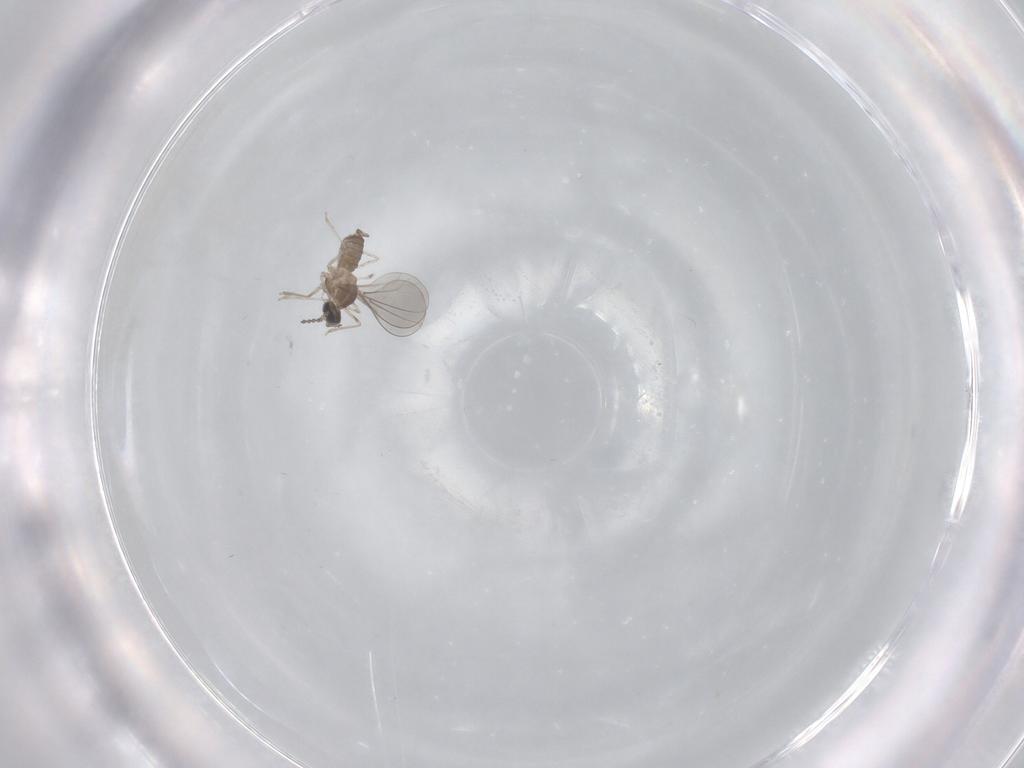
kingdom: Animalia
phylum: Arthropoda
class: Insecta
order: Diptera
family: Cecidomyiidae
